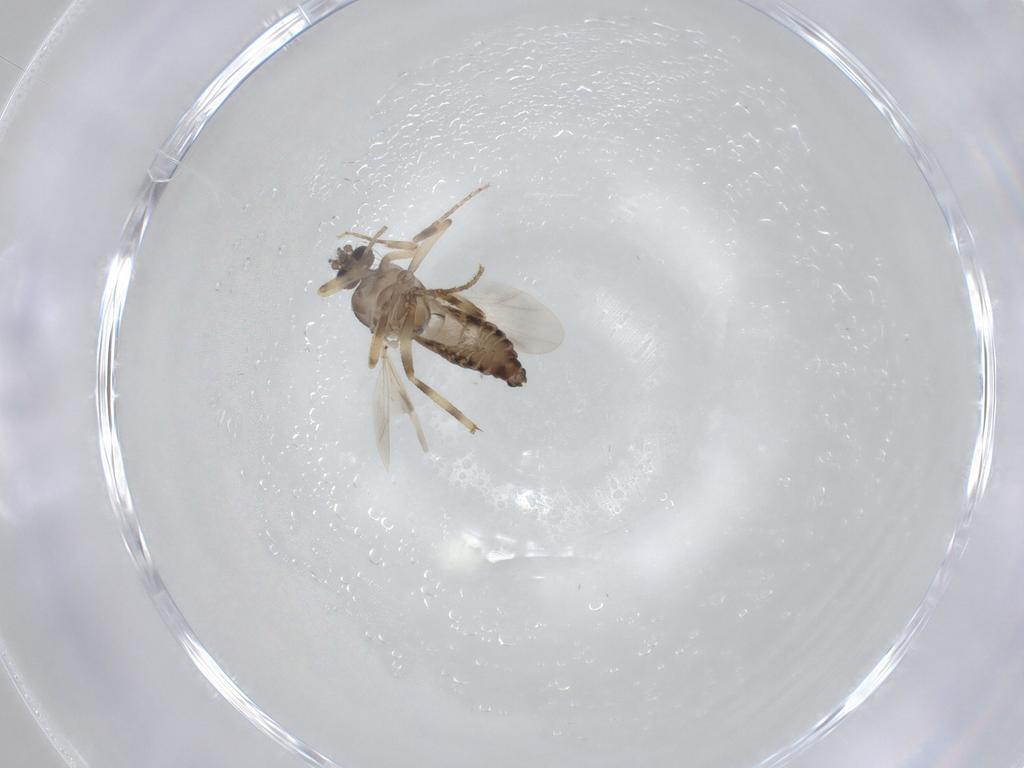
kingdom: Animalia
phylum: Arthropoda
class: Insecta
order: Diptera
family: Ceratopogonidae
